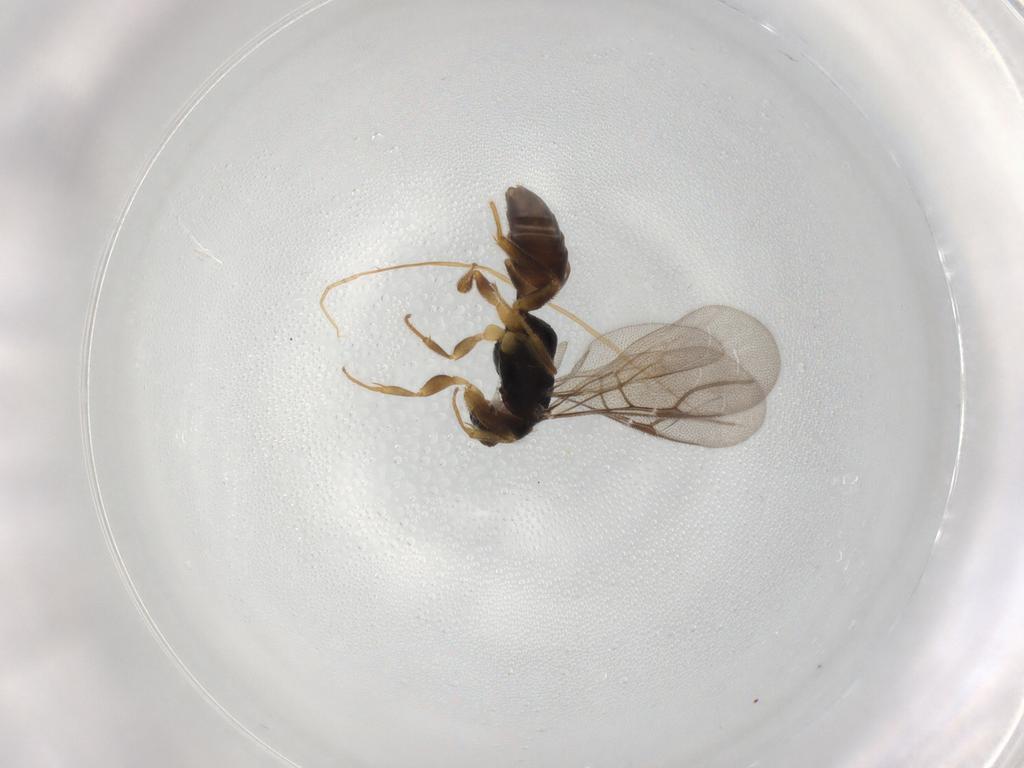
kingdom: Animalia
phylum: Arthropoda
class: Insecta
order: Hymenoptera
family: Bethylidae
